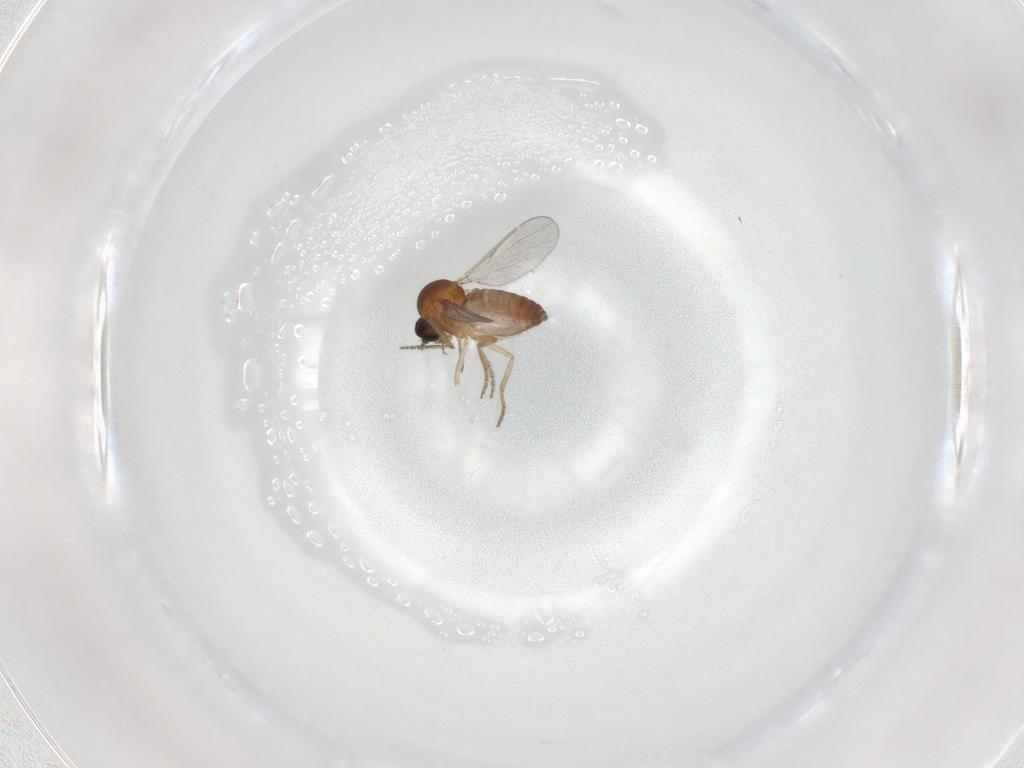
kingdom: Animalia
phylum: Arthropoda
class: Insecta
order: Diptera
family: Ceratopogonidae
